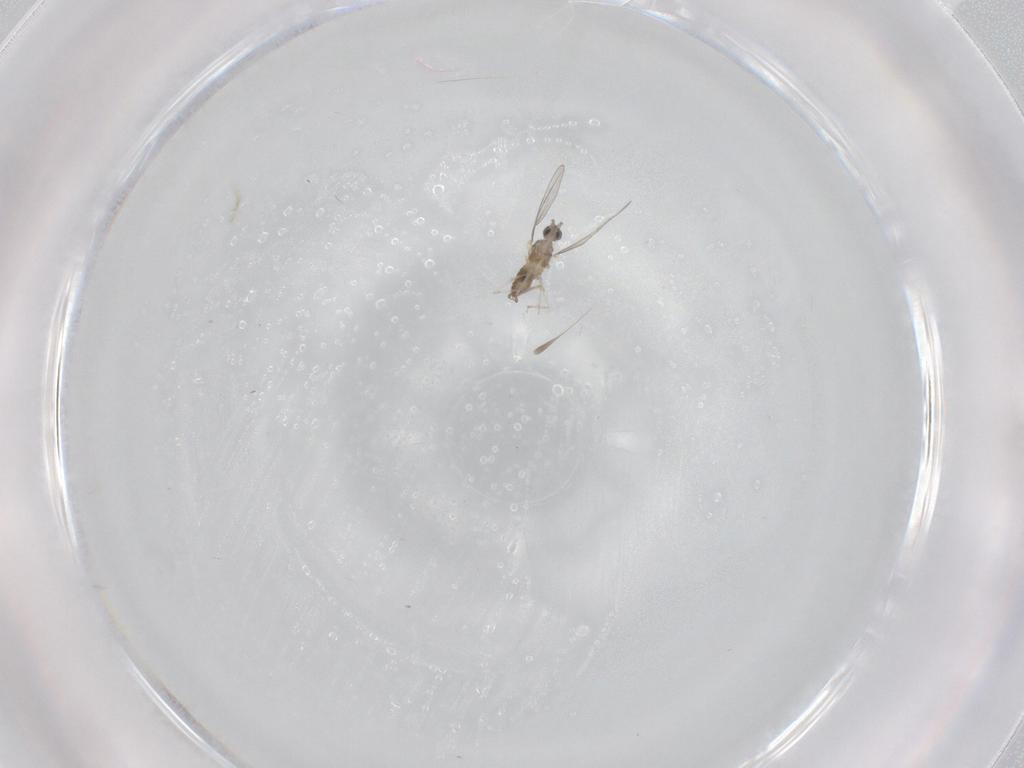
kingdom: Animalia
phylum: Arthropoda
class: Insecta
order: Diptera
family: Cecidomyiidae
